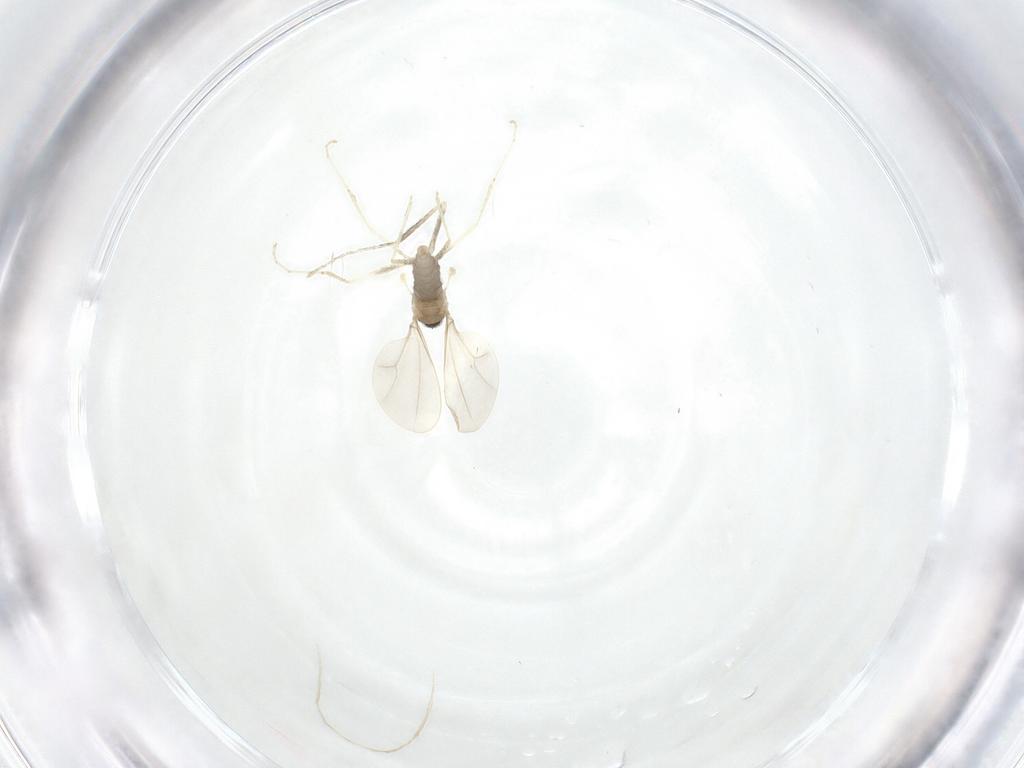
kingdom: Animalia
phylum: Arthropoda
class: Insecta
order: Diptera
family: Cecidomyiidae
